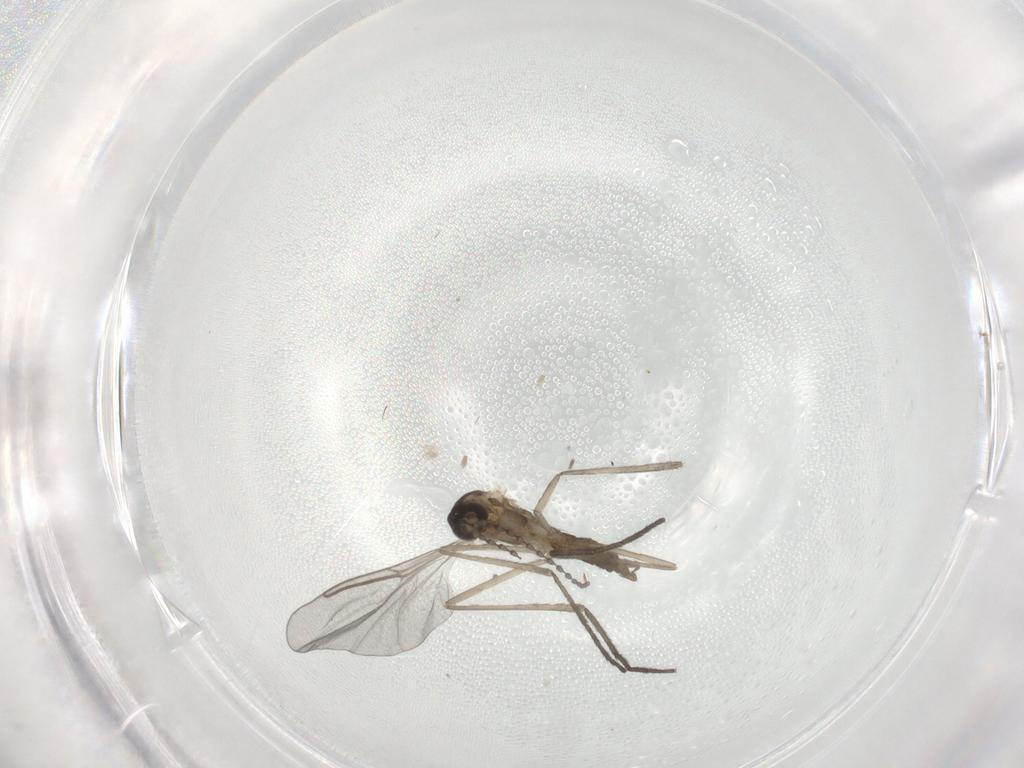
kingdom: Animalia
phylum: Arthropoda
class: Insecta
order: Diptera
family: Cecidomyiidae
